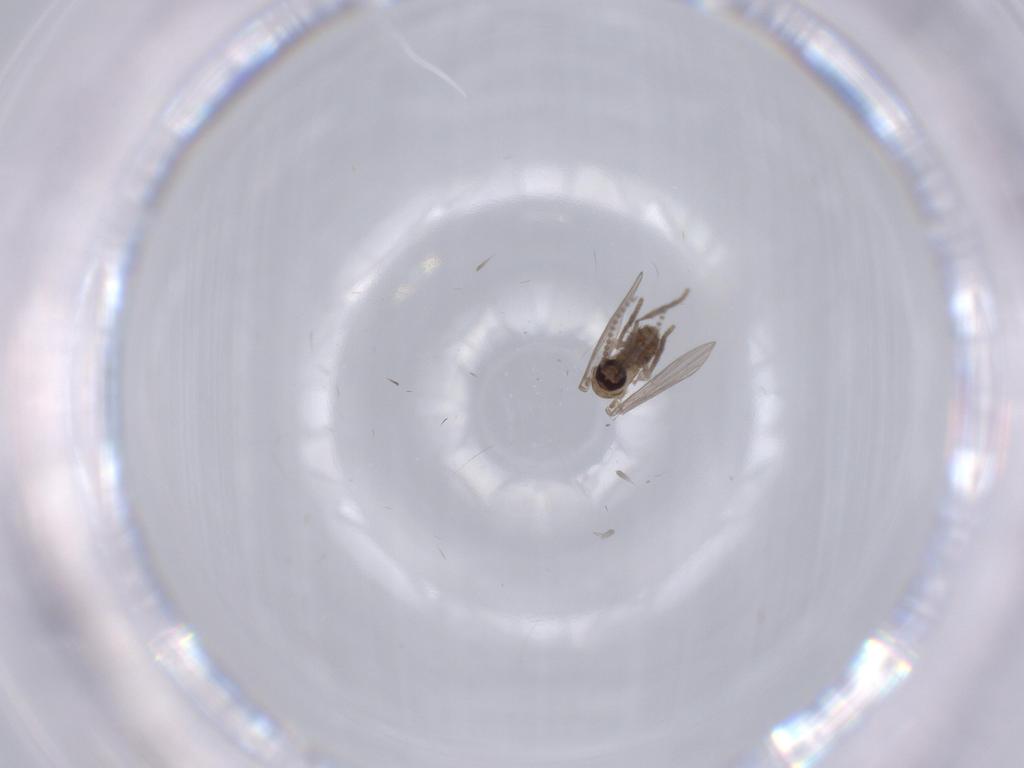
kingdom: Animalia
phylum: Arthropoda
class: Insecta
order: Diptera
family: Psychodidae
